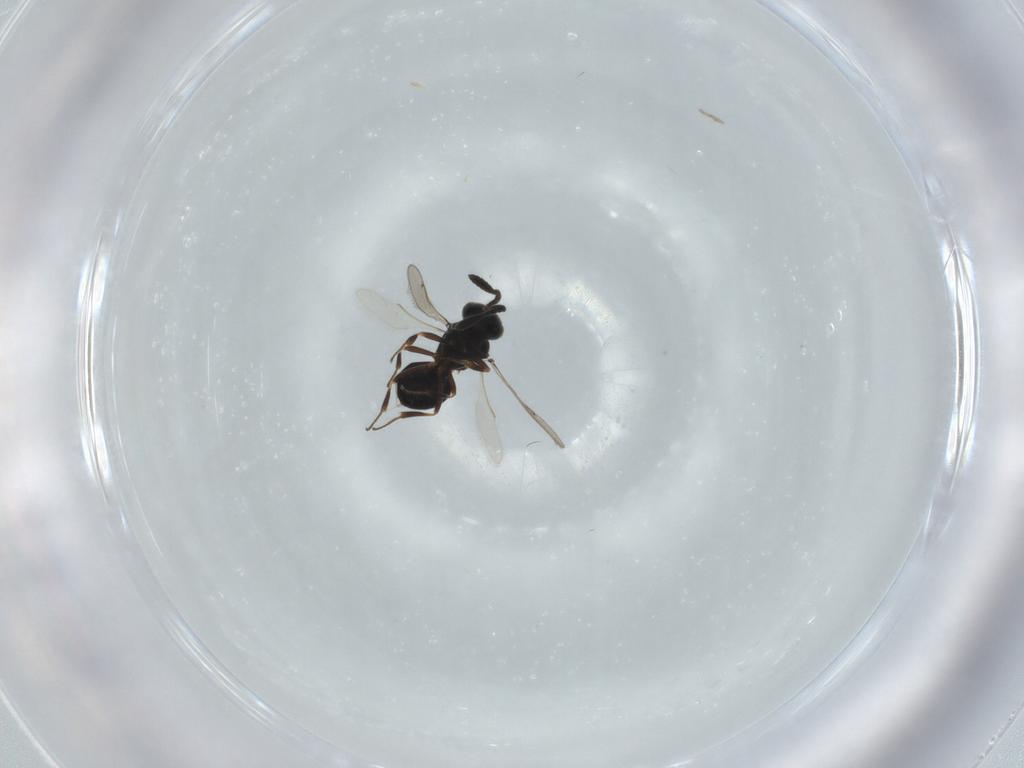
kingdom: Animalia
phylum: Arthropoda
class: Insecta
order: Hymenoptera
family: Scelionidae
